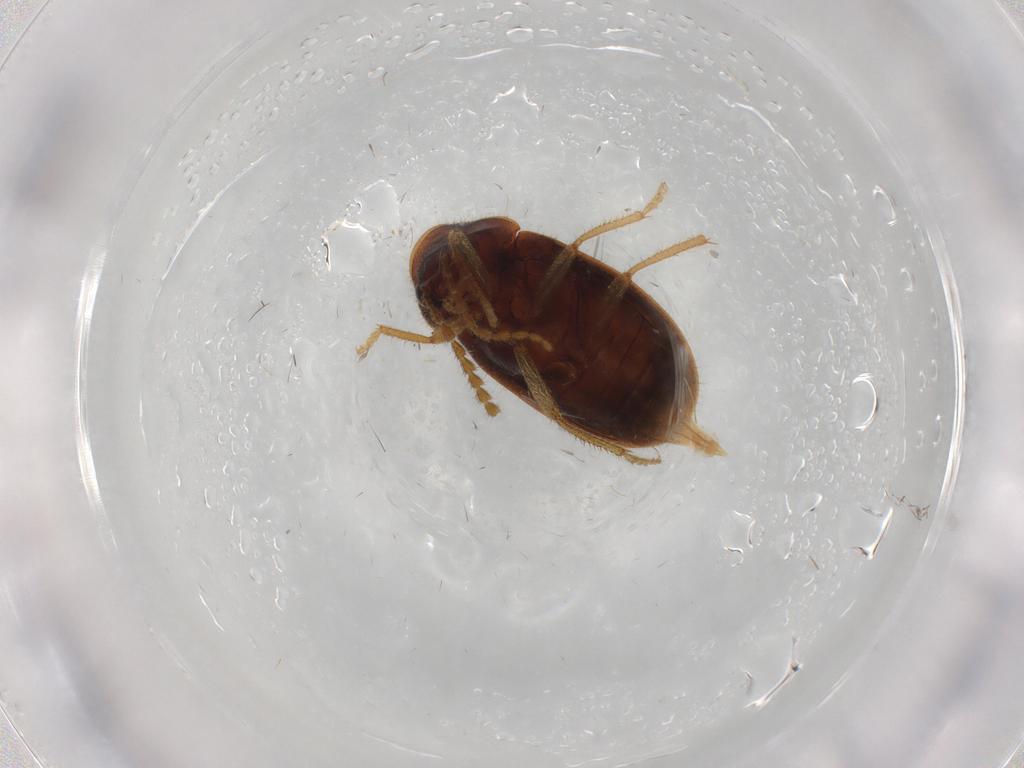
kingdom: Animalia
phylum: Arthropoda
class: Insecta
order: Coleoptera
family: Ptilodactylidae
